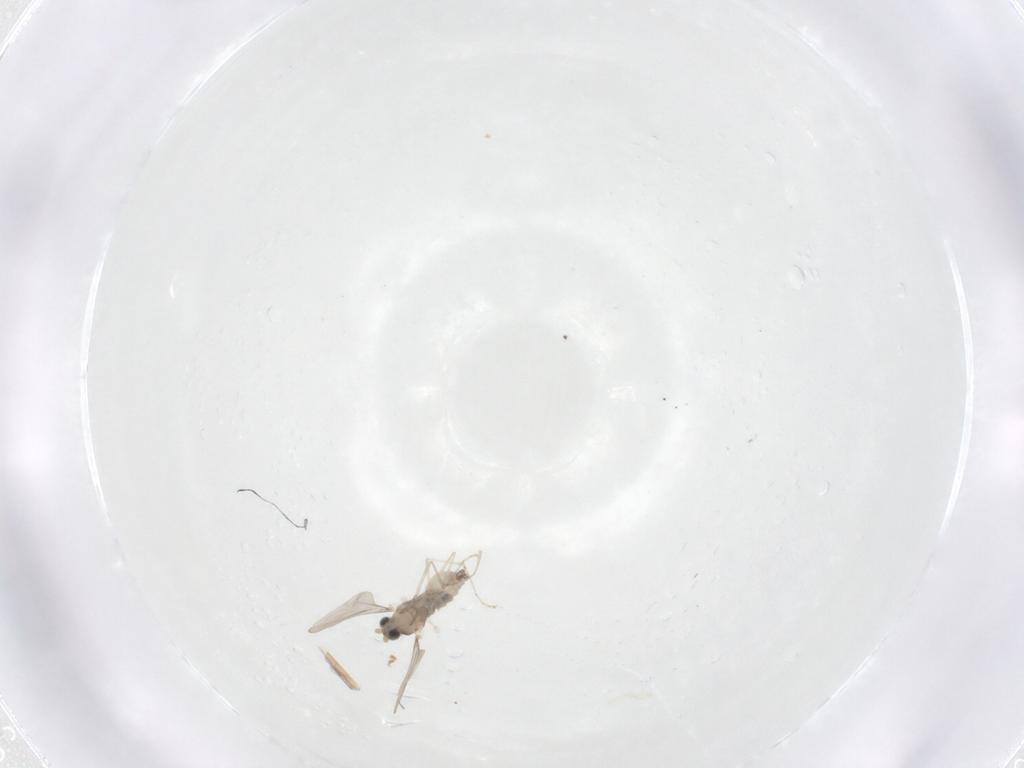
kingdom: Animalia
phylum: Arthropoda
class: Insecta
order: Diptera
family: Cecidomyiidae
